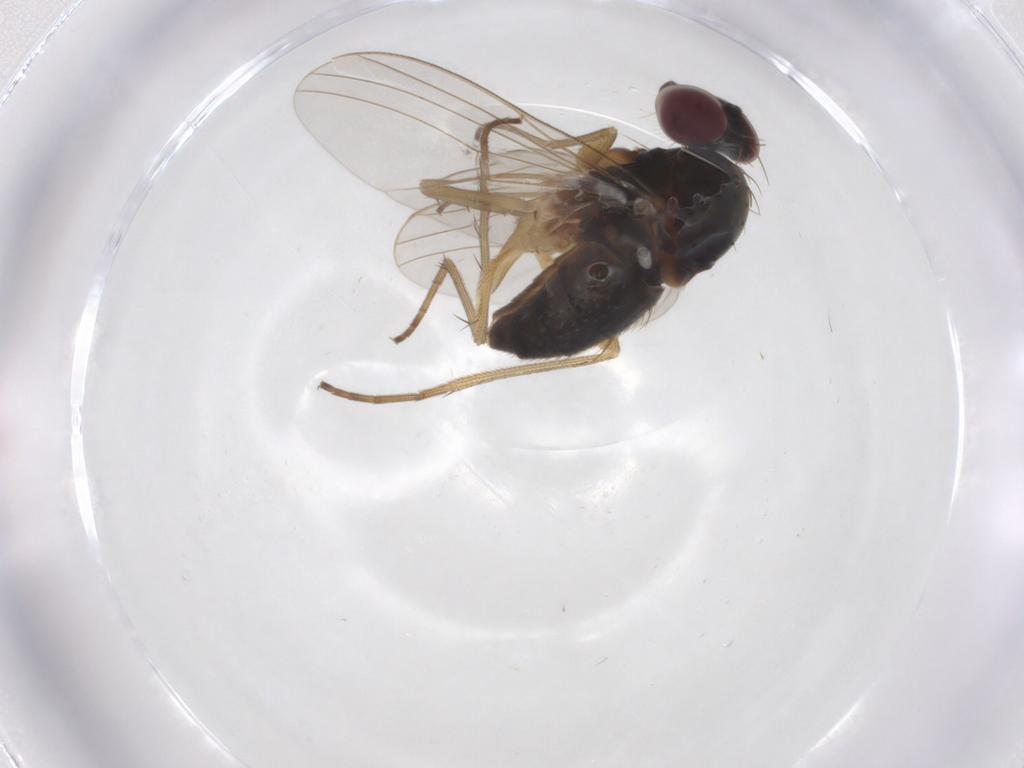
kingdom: Animalia
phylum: Arthropoda
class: Insecta
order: Diptera
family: Dolichopodidae
